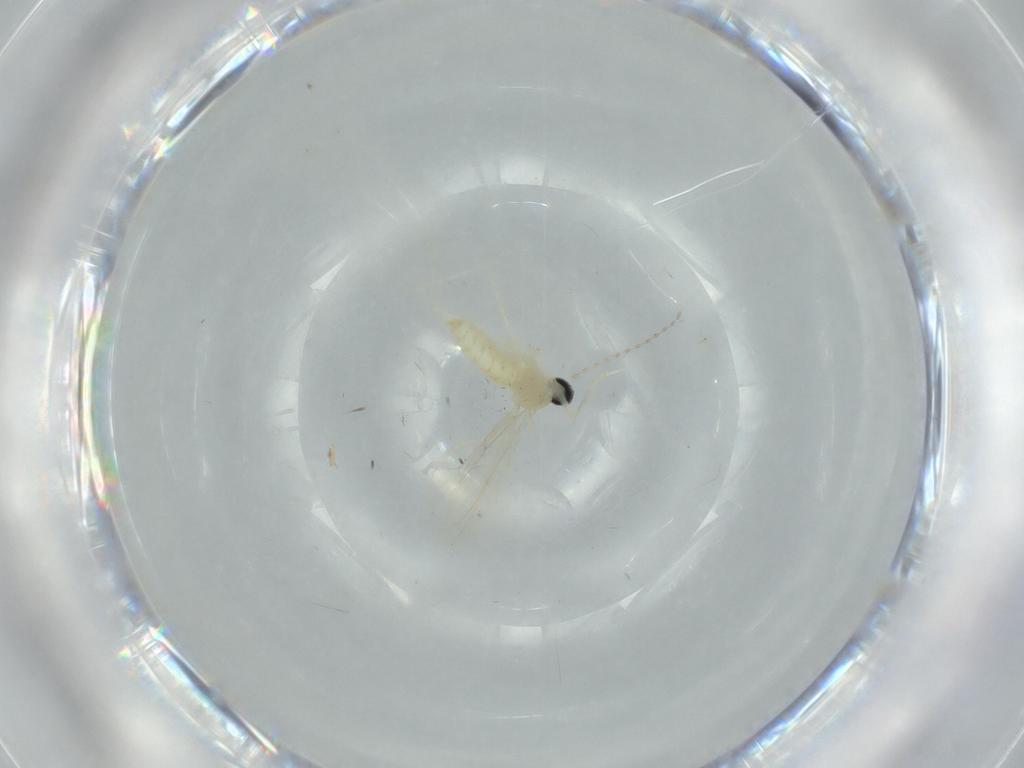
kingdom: Animalia
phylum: Arthropoda
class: Insecta
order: Diptera
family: Cecidomyiidae
